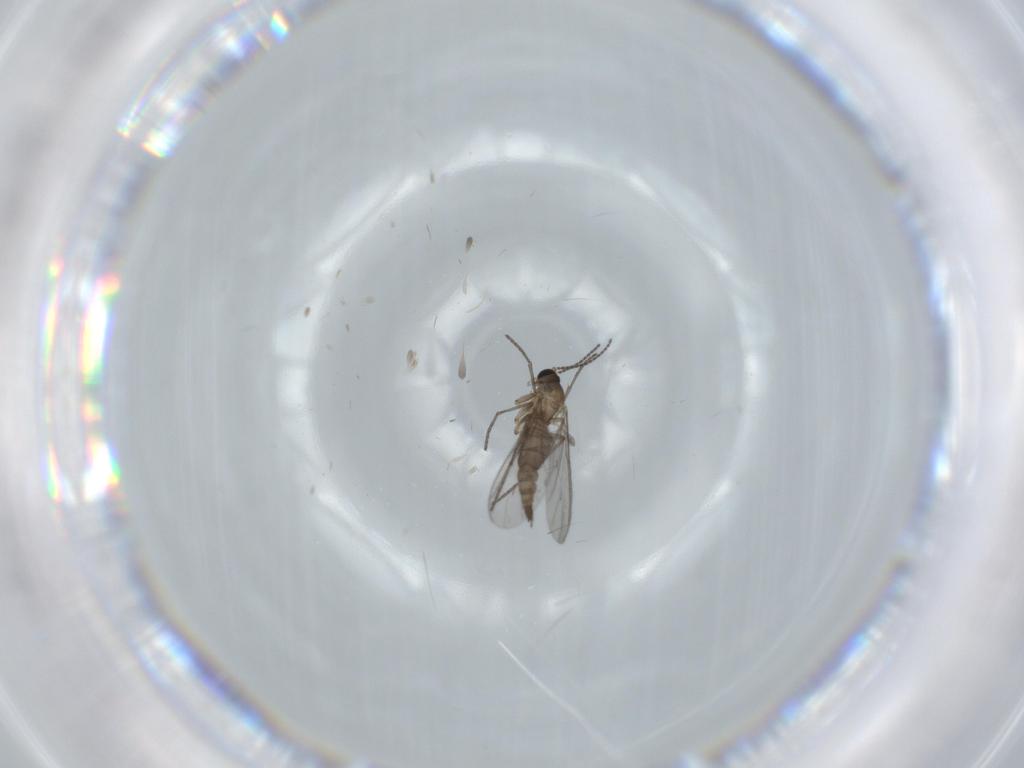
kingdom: Animalia
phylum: Arthropoda
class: Insecta
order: Diptera
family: Sciaridae
